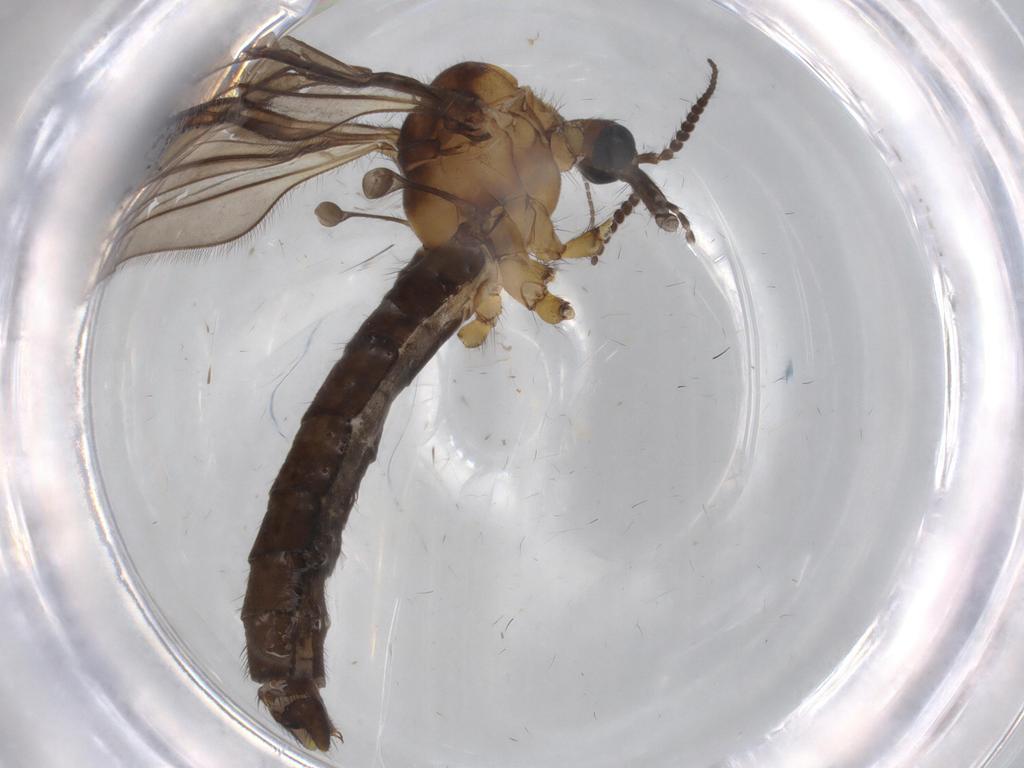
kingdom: Animalia
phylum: Arthropoda
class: Insecta
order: Diptera
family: Limoniidae
